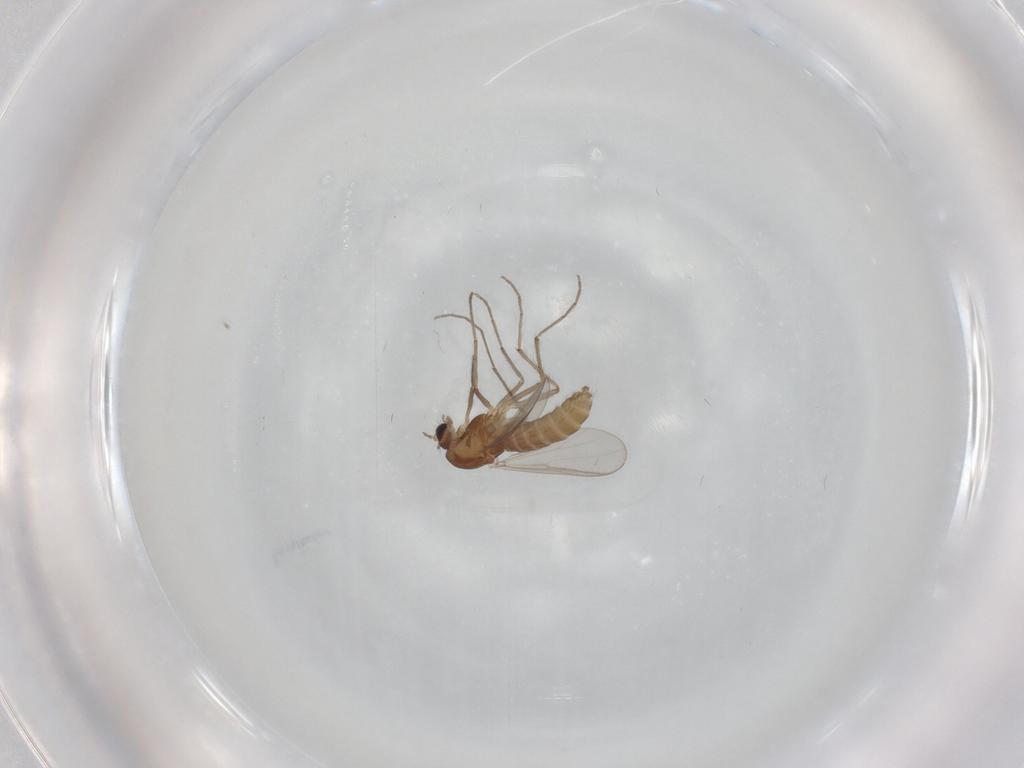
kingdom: Animalia
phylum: Arthropoda
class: Insecta
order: Diptera
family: Chironomidae
